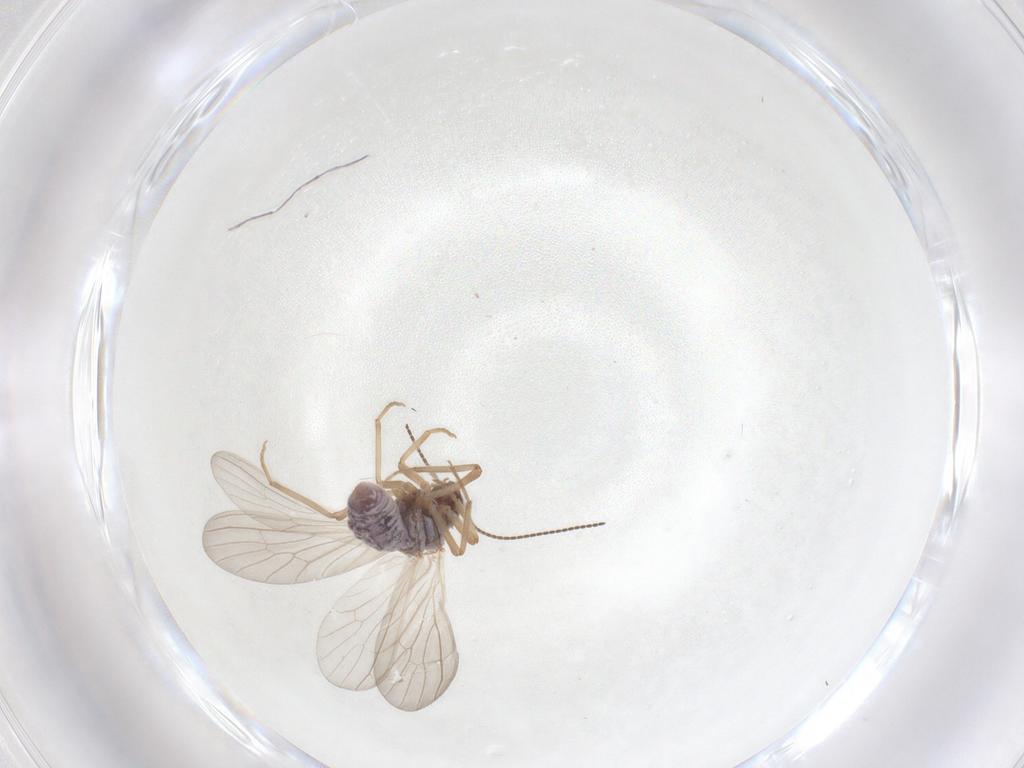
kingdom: Animalia
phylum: Arthropoda
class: Insecta
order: Neuroptera
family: Coniopterygidae
